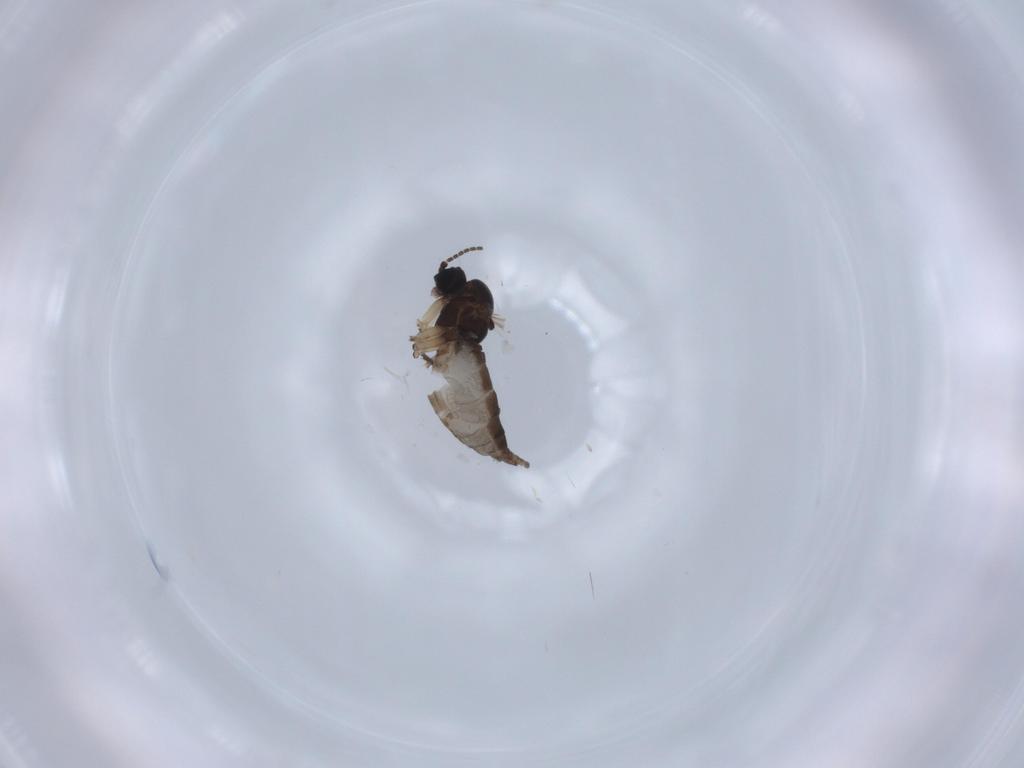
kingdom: Animalia
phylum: Arthropoda
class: Insecta
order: Diptera
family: Sciaridae
